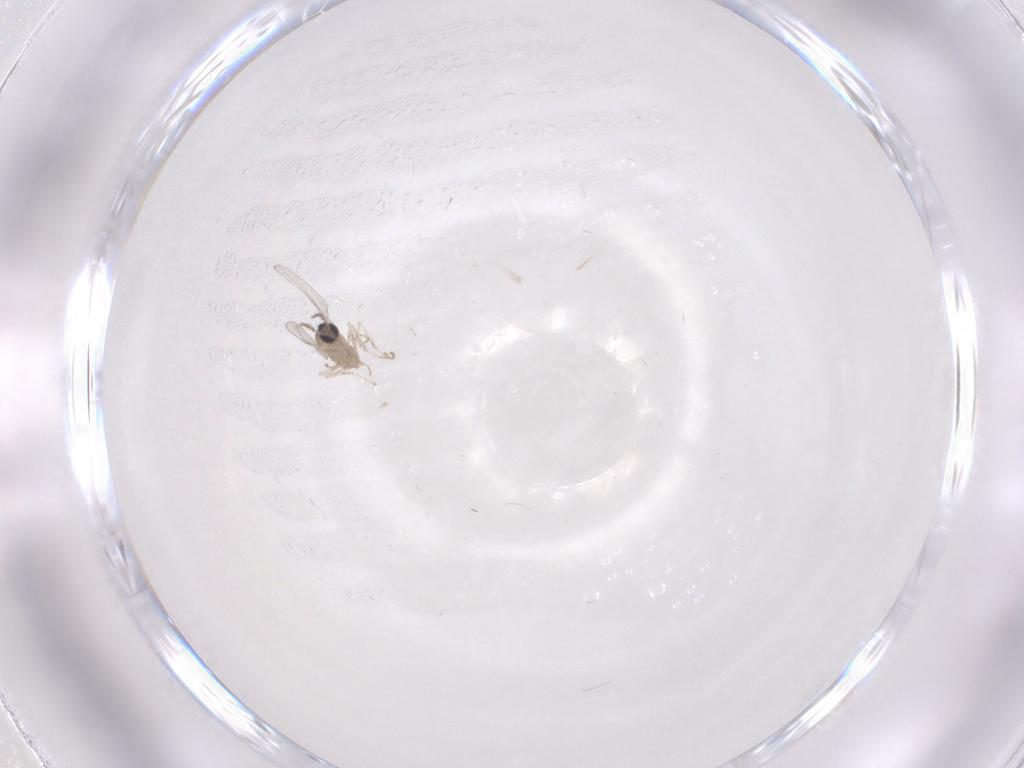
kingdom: Animalia
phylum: Arthropoda
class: Insecta
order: Diptera
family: Cecidomyiidae
